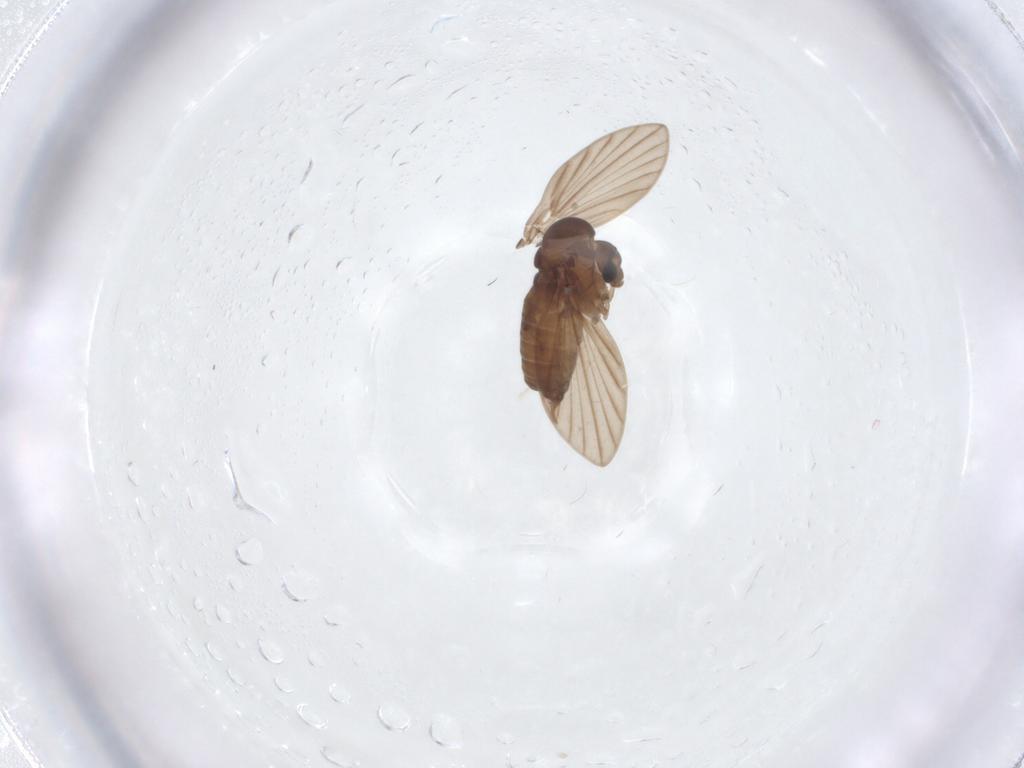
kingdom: Animalia
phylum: Arthropoda
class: Insecta
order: Diptera
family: Psychodidae
